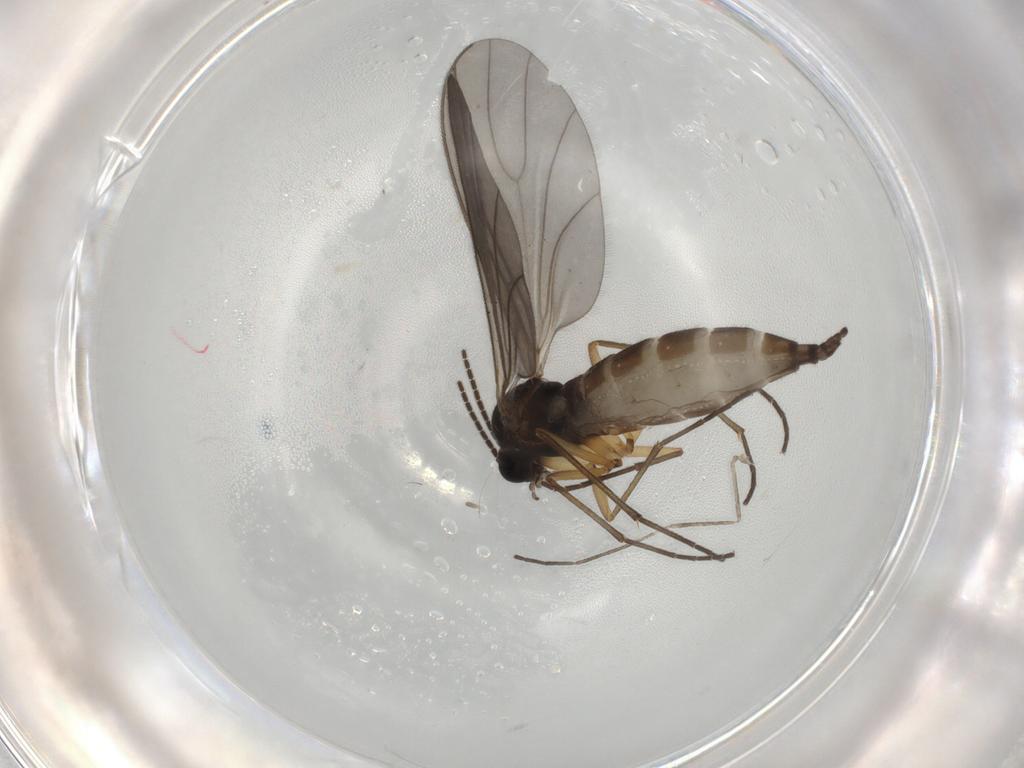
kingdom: Animalia
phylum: Arthropoda
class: Insecta
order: Diptera
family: Sciaridae
